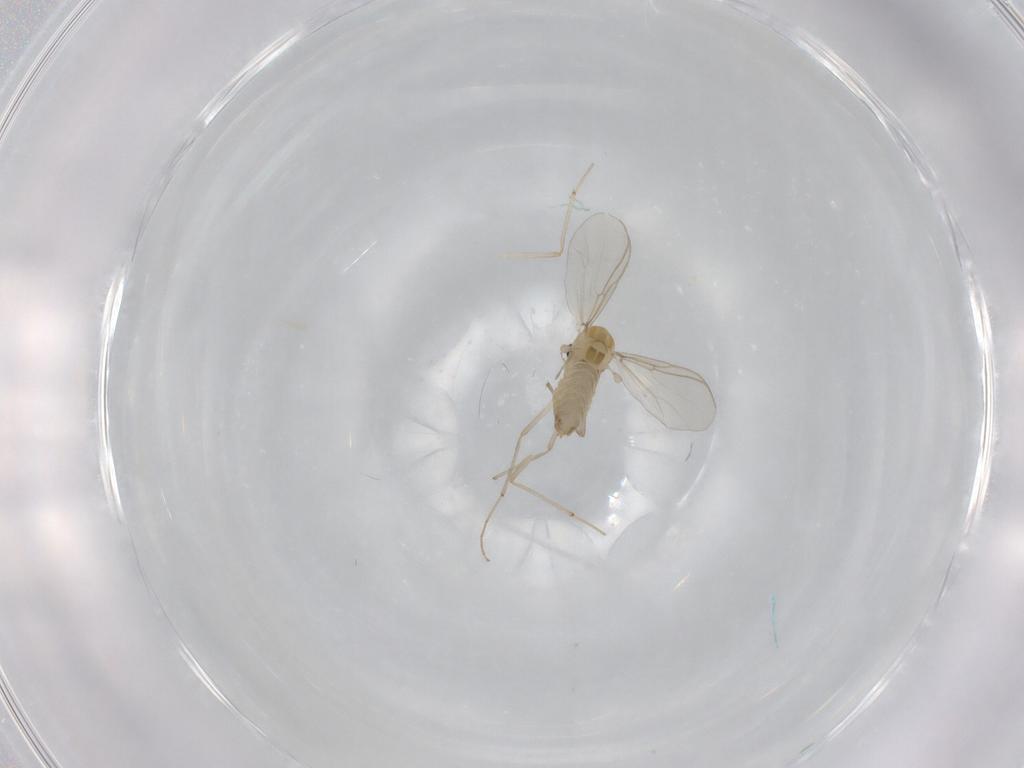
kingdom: Animalia
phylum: Arthropoda
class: Insecta
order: Diptera
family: Chironomidae
